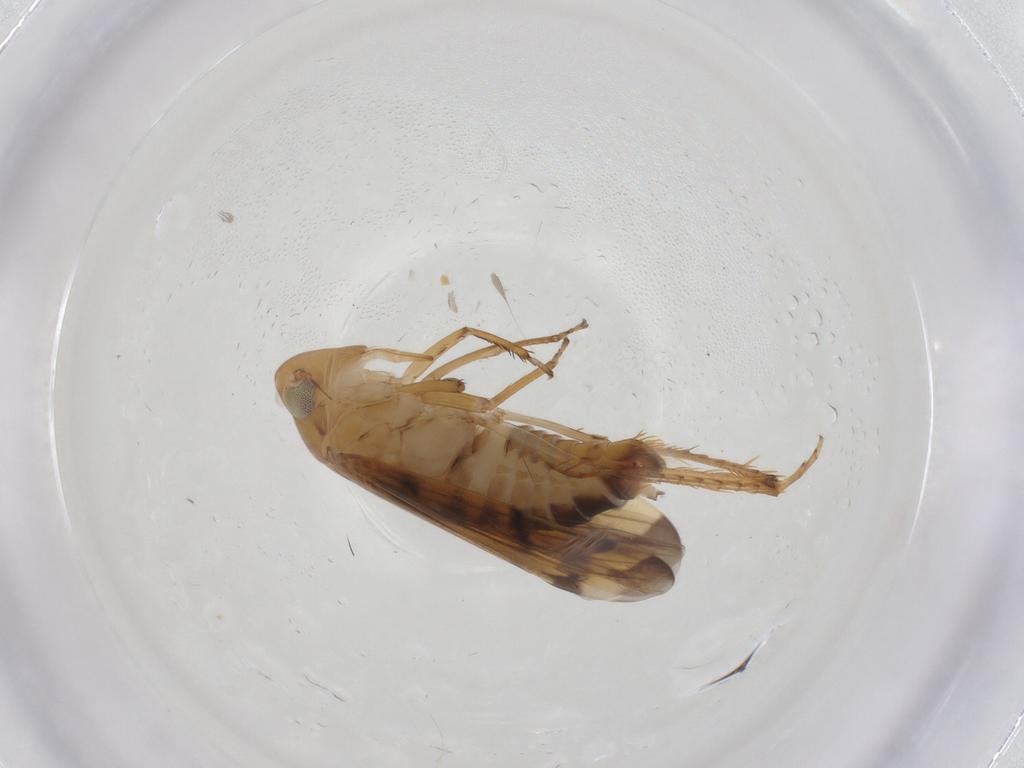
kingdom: Animalia
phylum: Arthropoda
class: Insecta
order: Hemiptera
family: Cicadellidae
